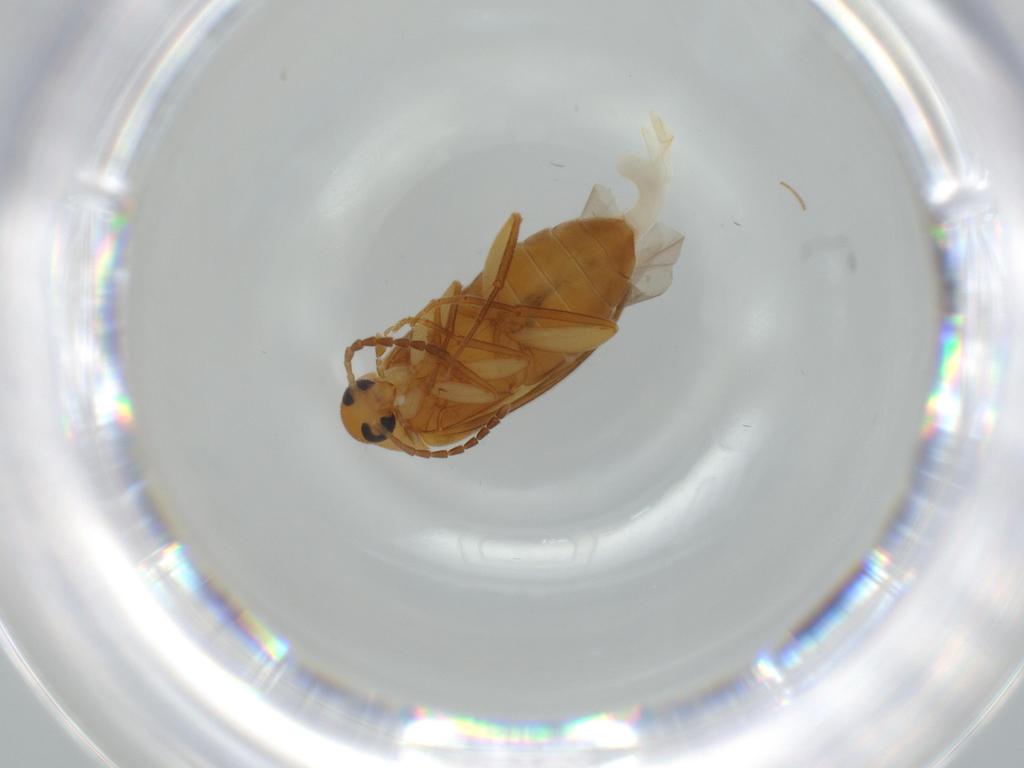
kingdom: Animalia
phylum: Arthropoda
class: Insecta
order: Coleoptera
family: Scraptiidae
